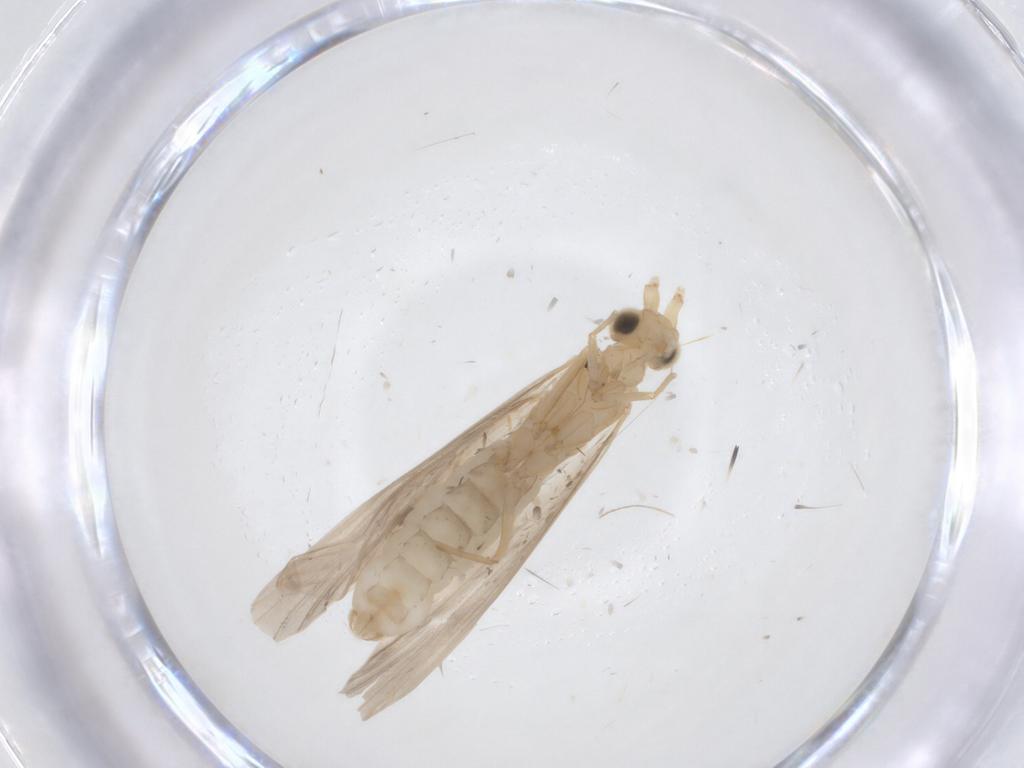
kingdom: Animalia
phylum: Arthropoda
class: Insecta
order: Trichoptera
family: Leptoceridae
